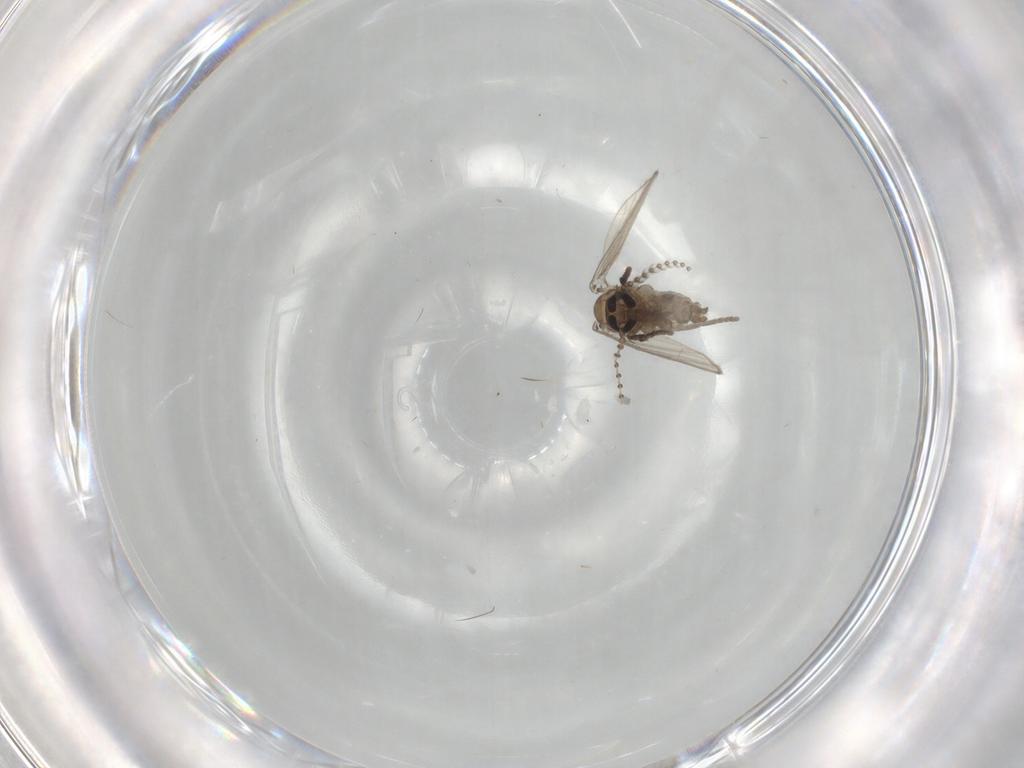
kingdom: Animalia
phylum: Arthropoda
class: Insecta
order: Diptera
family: Psychodidae
